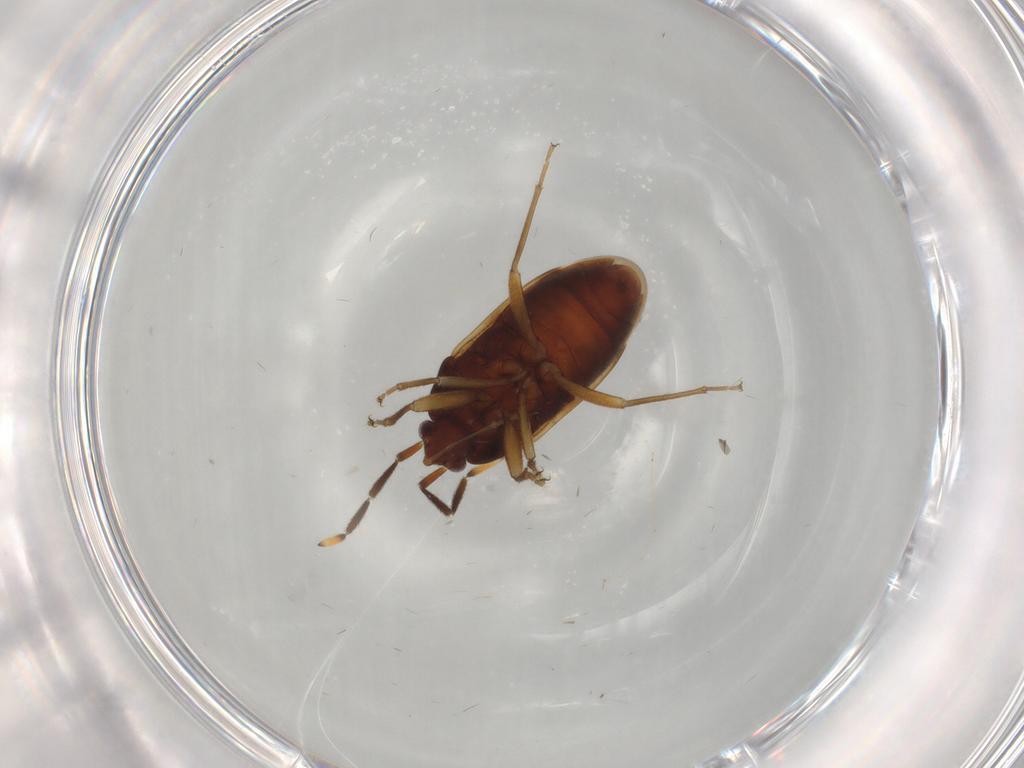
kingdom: Animalia
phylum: Arthropoda
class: Insecta
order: Hemiptera
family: Rhyparochromidae
